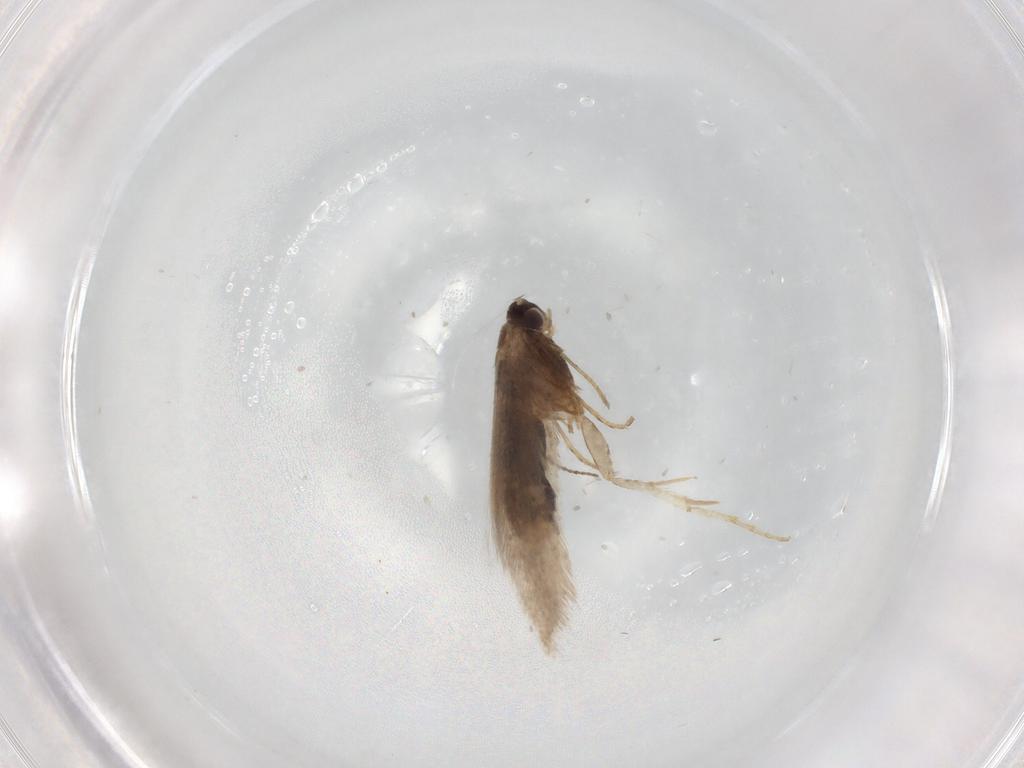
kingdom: Animalia
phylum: Arthropoda
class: Insecta
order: Lepidoptera
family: Nepticulidae
